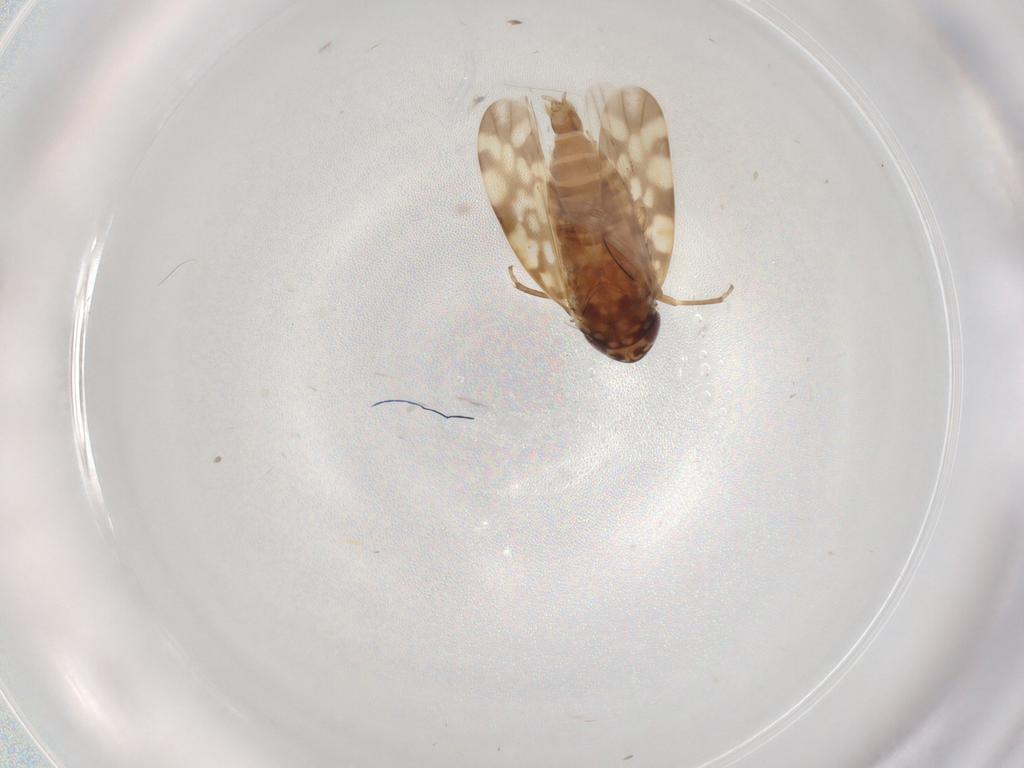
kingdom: Animalia
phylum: Arthropoda
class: Insecta
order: Hemiptera
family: Cicadellidae
